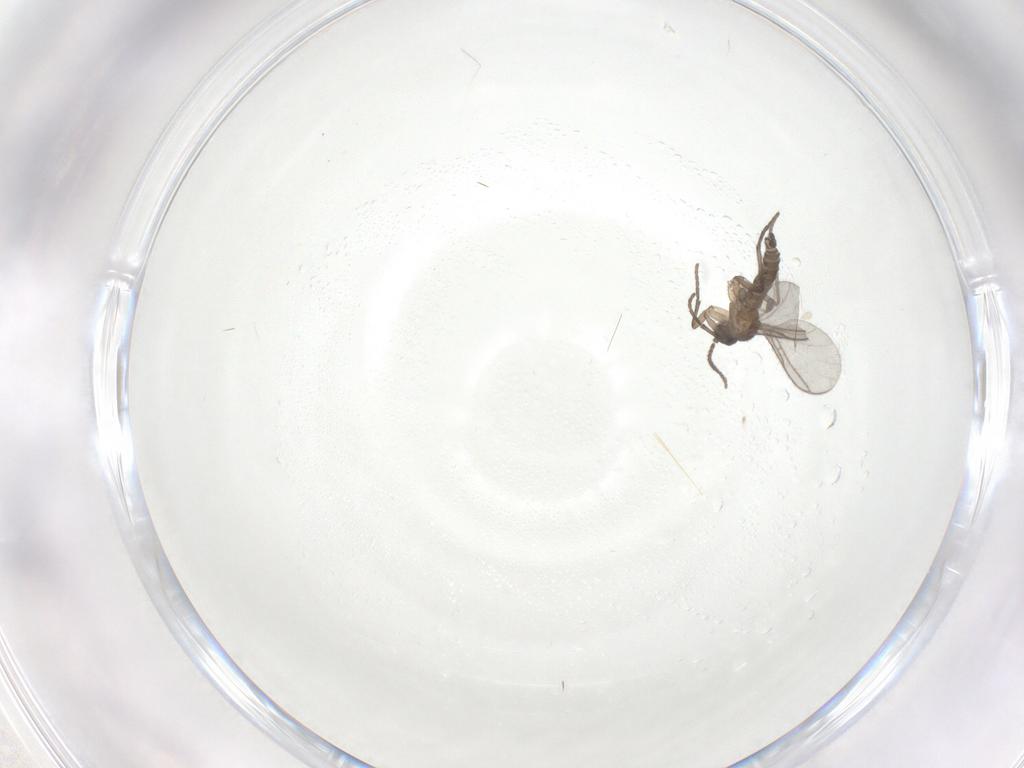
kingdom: Animalia
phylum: Arthropoda
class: Insecta
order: Diptera
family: Sciaridae
